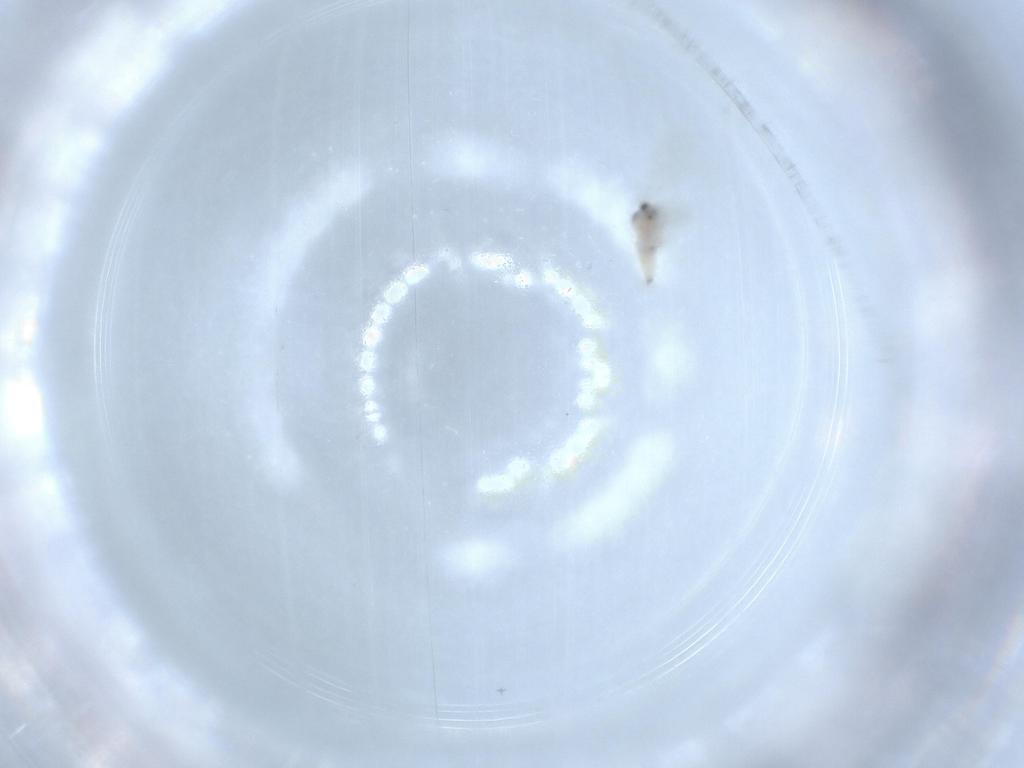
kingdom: Animalia
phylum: Arthropoda
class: Insecta
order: Diptera
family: Cecidomyiidae
